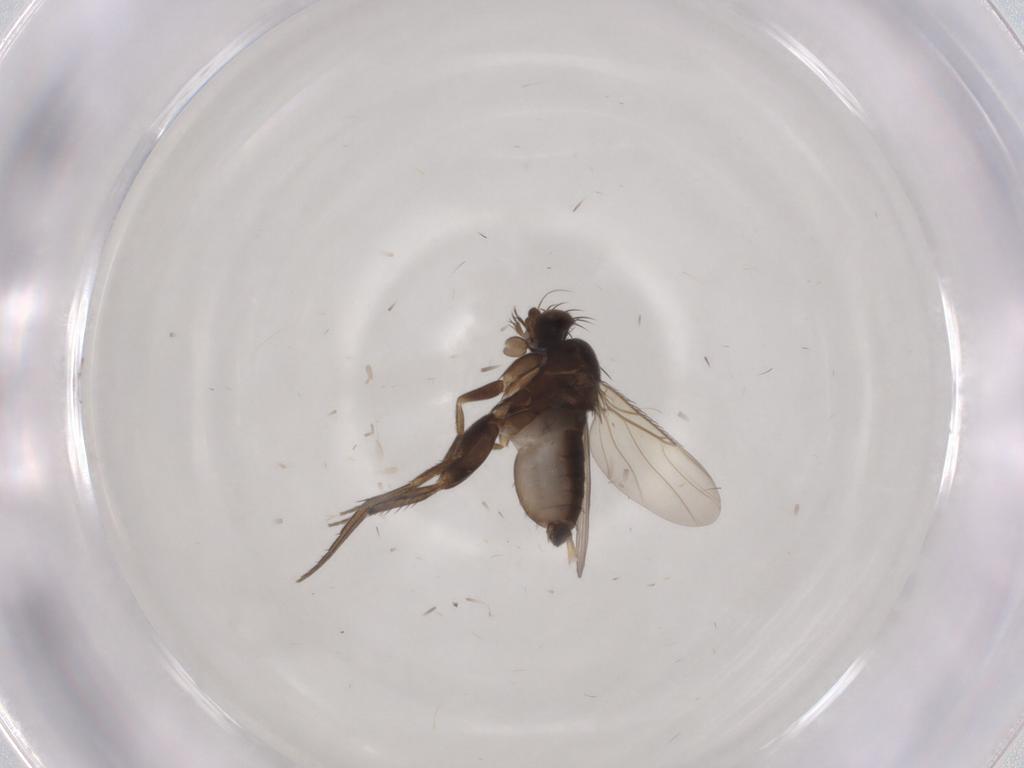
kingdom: Animalia
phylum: Arthropoda
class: Insecta
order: Diptera
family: Phoridae
